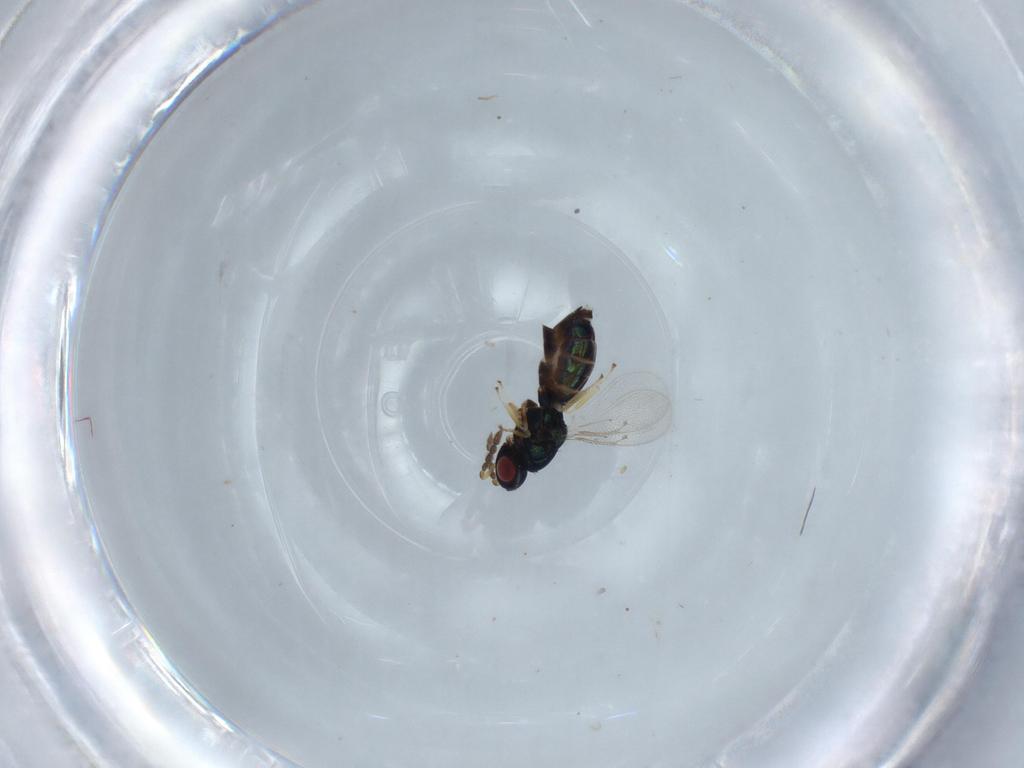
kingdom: Animalia
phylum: Arthropoda
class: Insecta
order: Hymenoptera
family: Eulophidae
